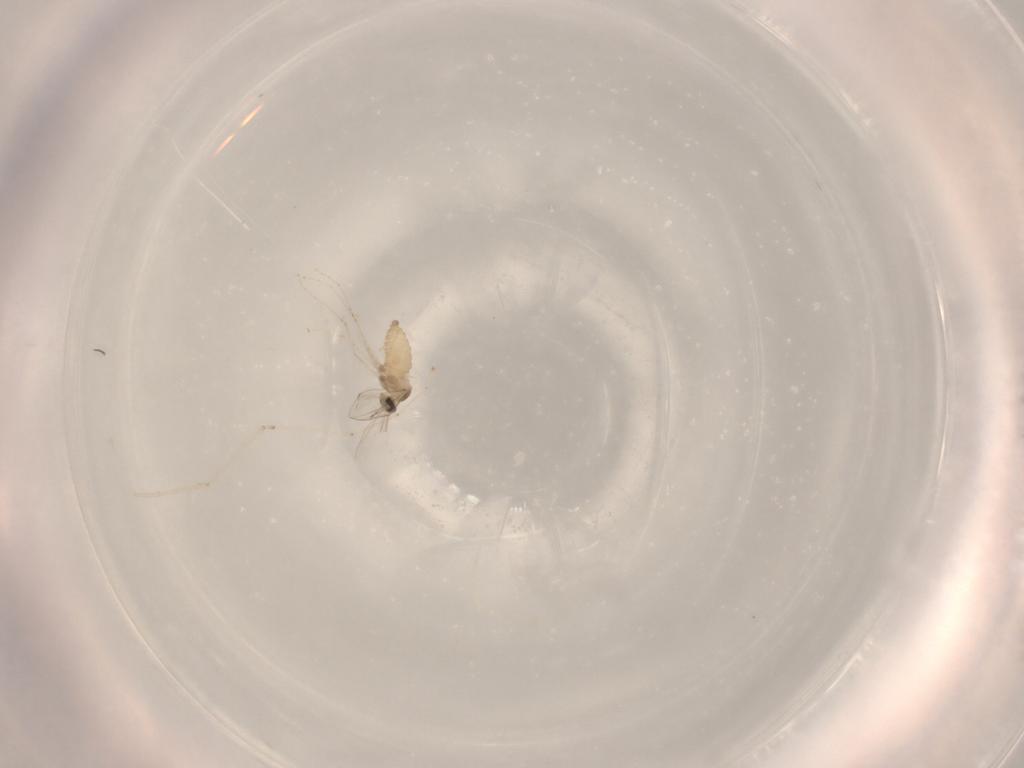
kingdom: Animalia
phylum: Arthropoda
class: Insecta
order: Diptera
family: Cecidomyiidae
